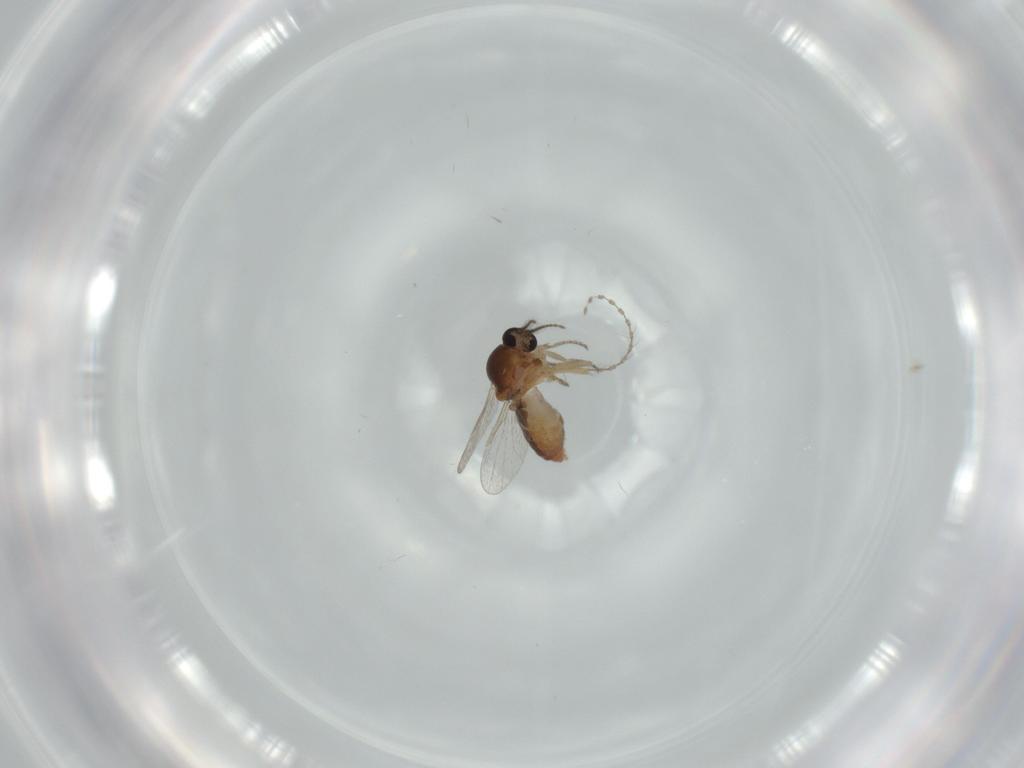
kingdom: Animalia
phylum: Arthropoda
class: Insecta
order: Diptera
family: Ceratopogonidae
